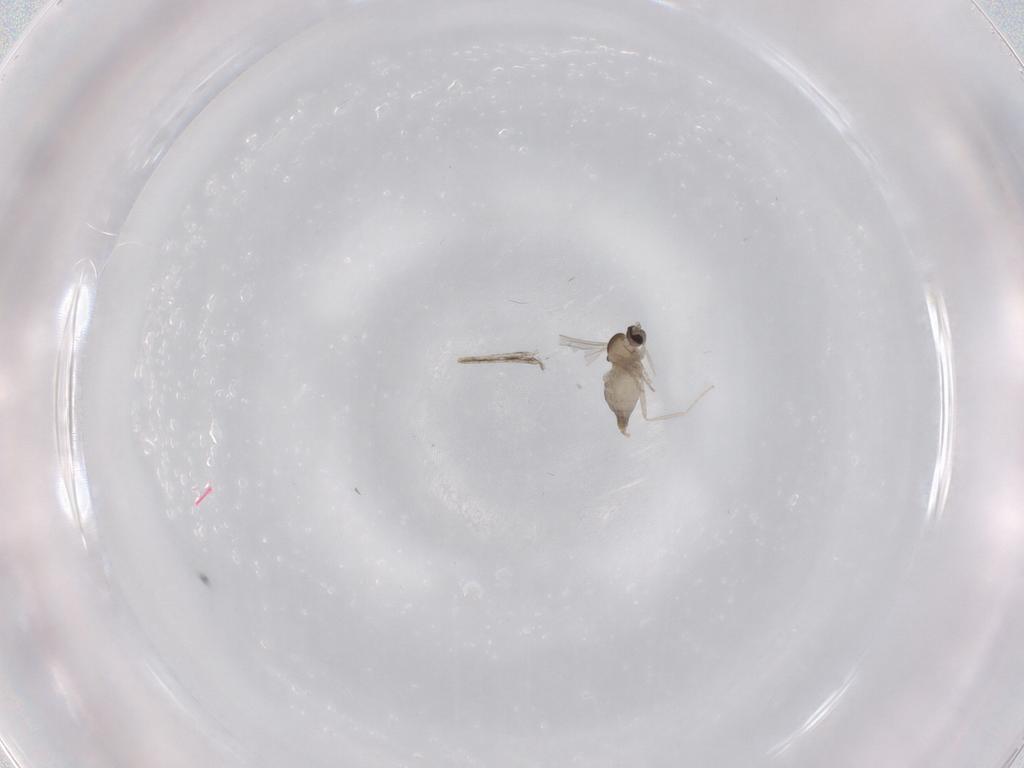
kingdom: Animalia
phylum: Arthropoda
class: Insecta
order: Diptera
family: Cecidomyiidae
